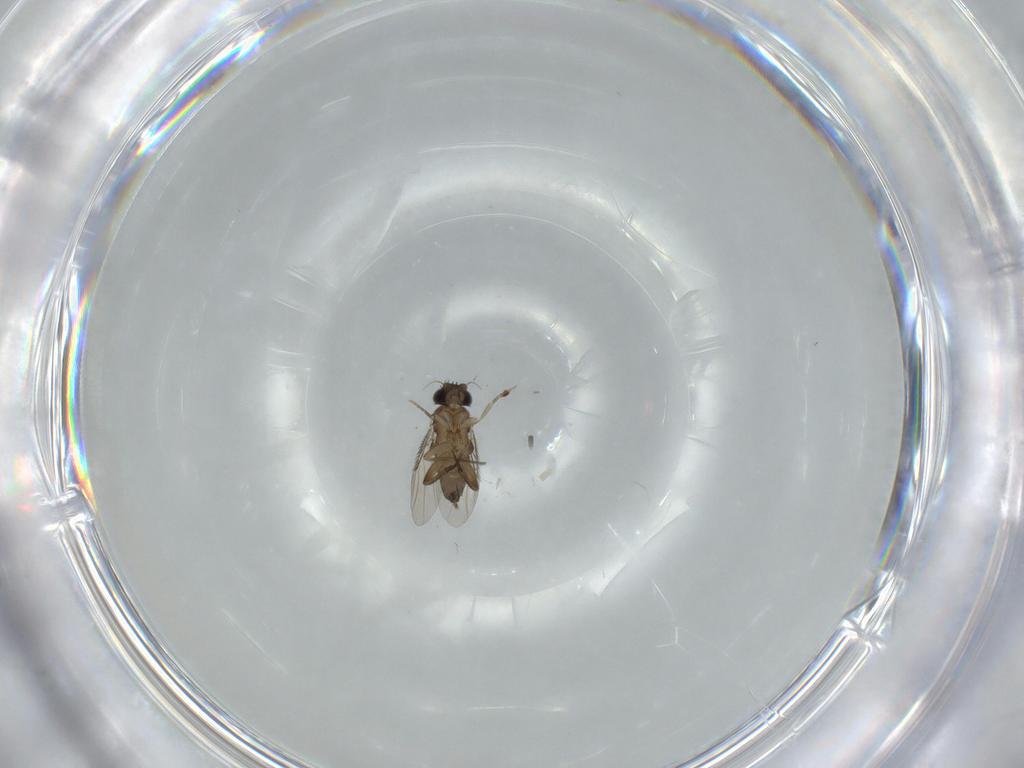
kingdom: Animalia
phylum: Arthropoda
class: Insecta
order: Diptera
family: Phoridae
